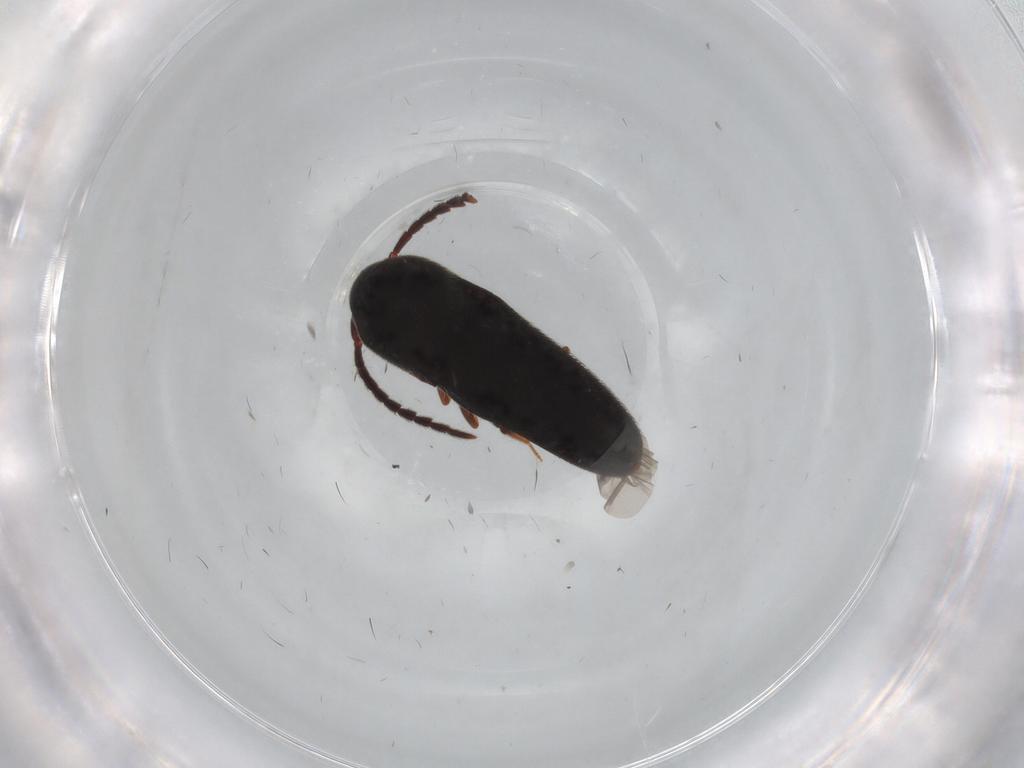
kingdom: Animalia
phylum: Arthropoda
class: Insecta
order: Coleoptera
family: Eucnemidae
